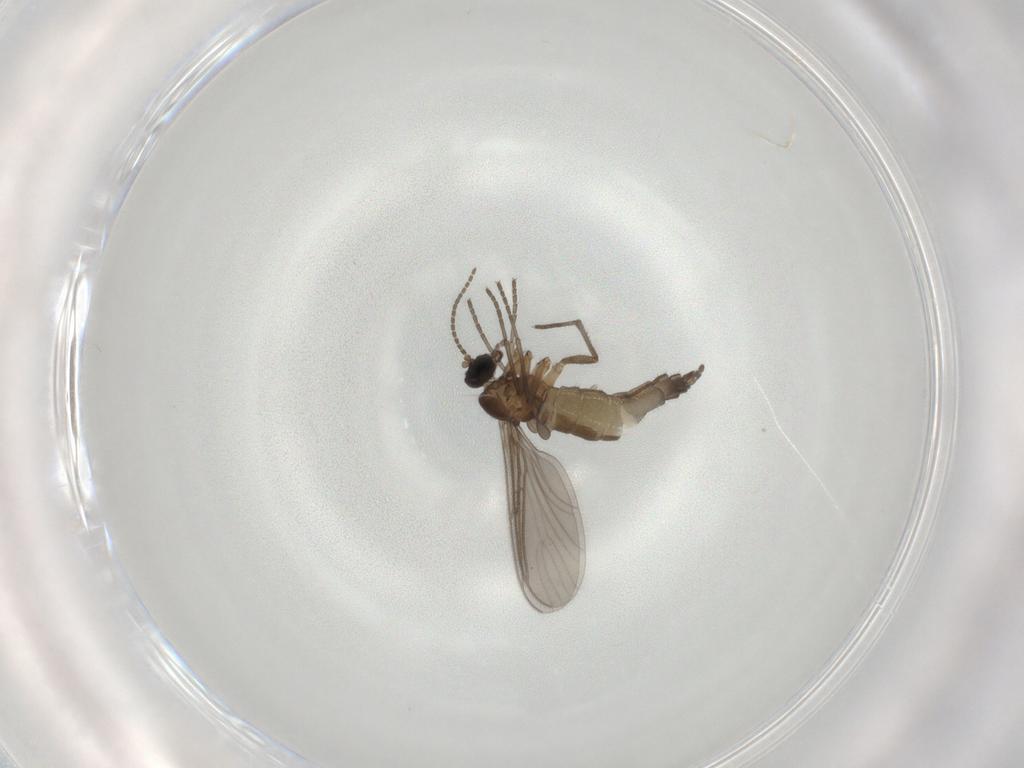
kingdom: Animalia
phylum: Arthropoda
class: Insecta
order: Diptera
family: Sciaridae
